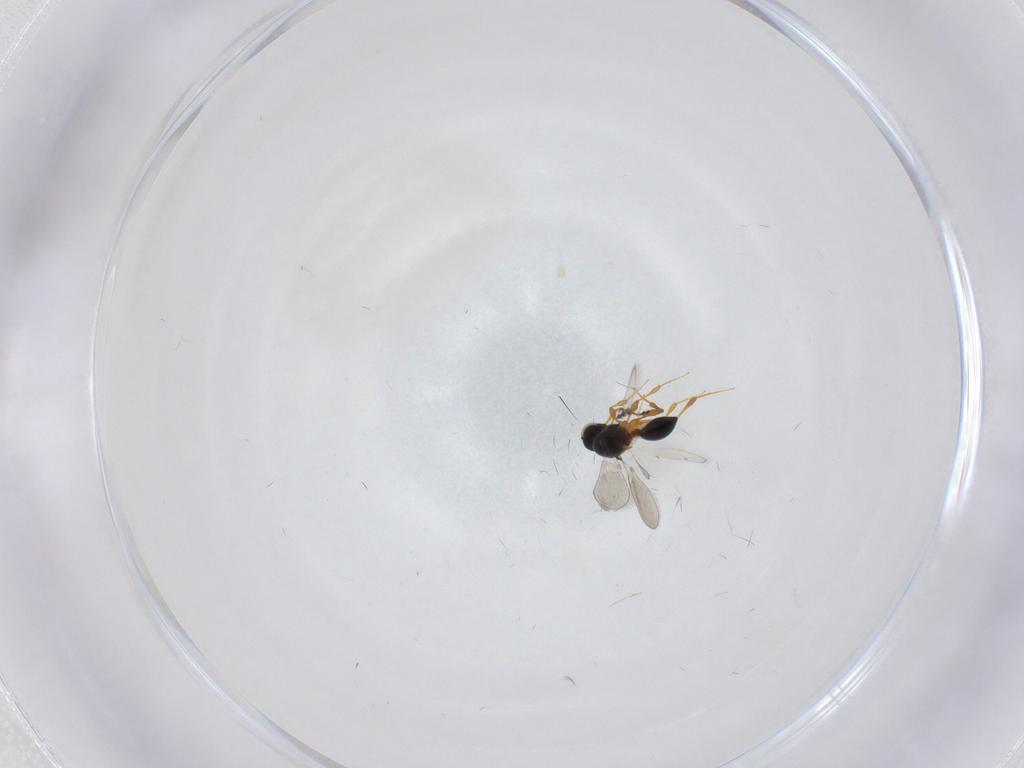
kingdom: Animalia
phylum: Arthropoda
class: Insecta
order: Hymenoptera
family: Platygastridae
